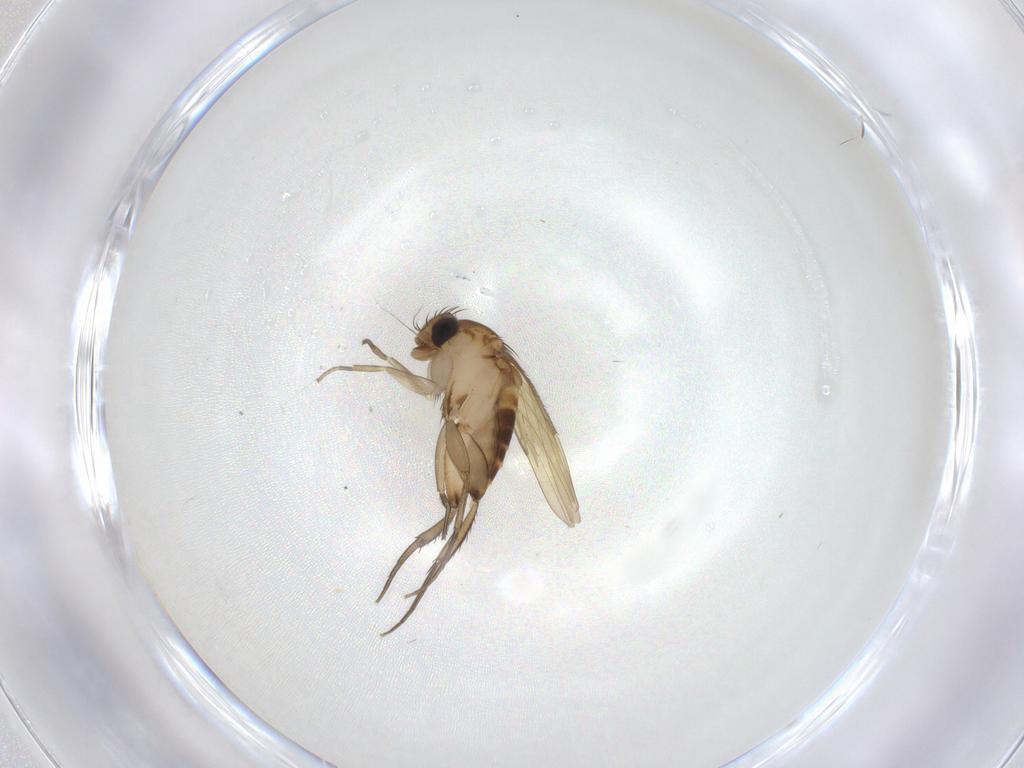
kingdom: Animalia
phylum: Arthropoda
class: Insecta
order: Diptera
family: Phoridae
